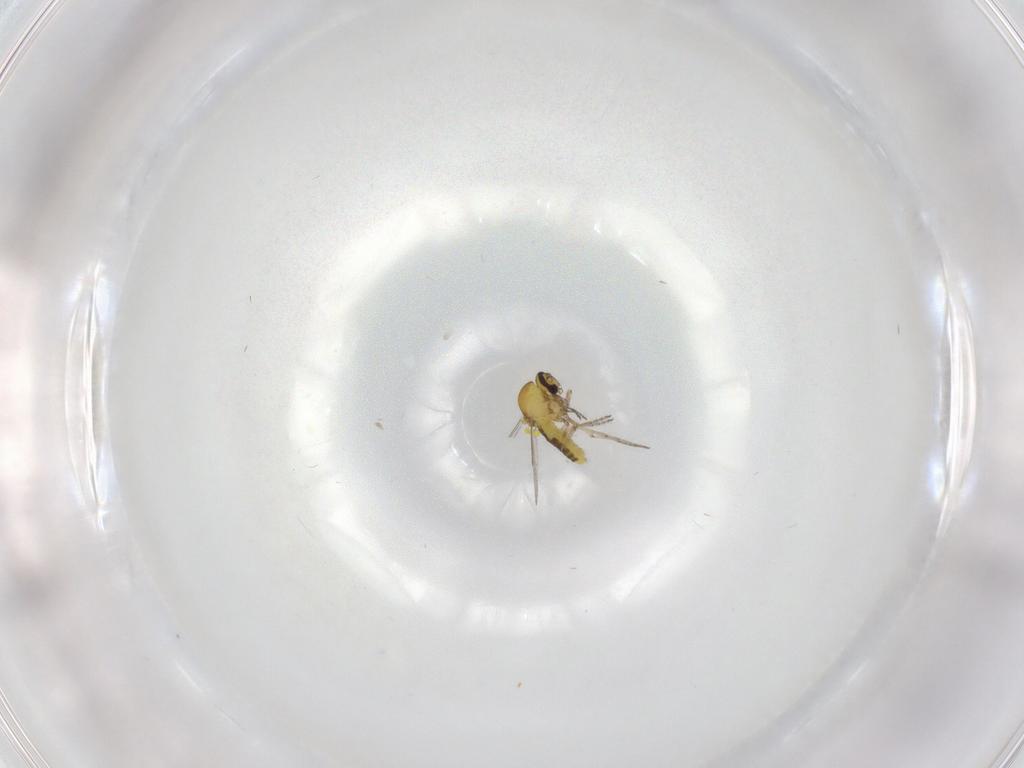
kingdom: Animalia
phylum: Arthropoda
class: Insecta
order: Diptera
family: Ceratopogonidae
